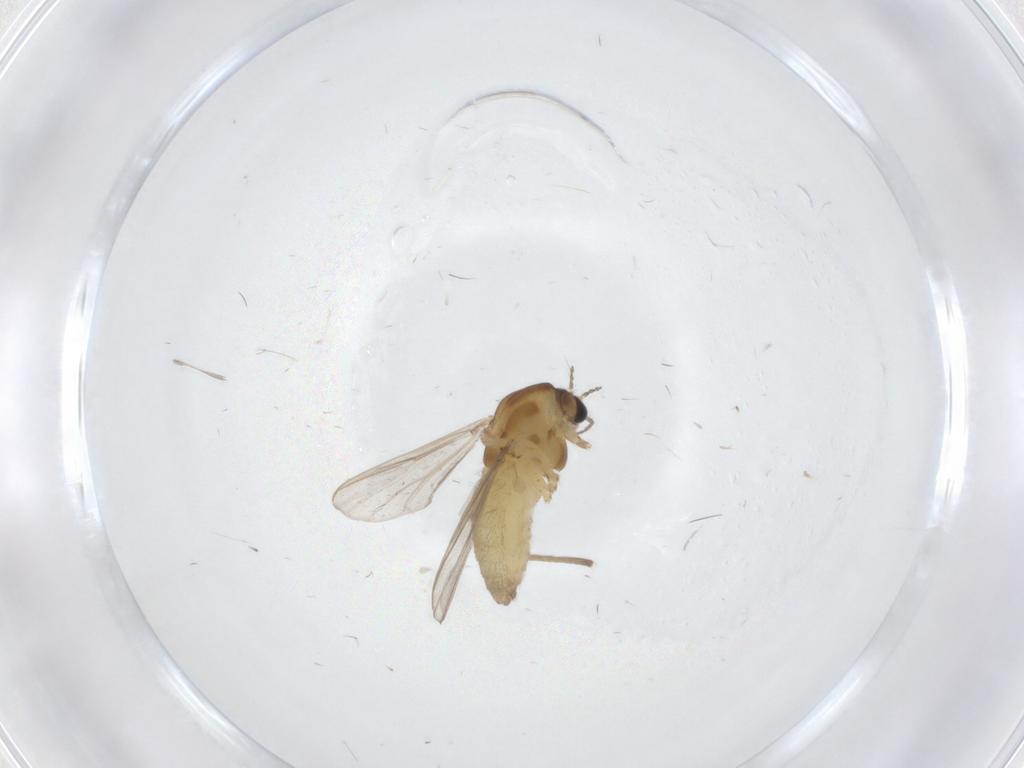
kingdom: Animalia
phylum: Arthropoda
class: Insecta
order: Diptera
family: Chironomidae
